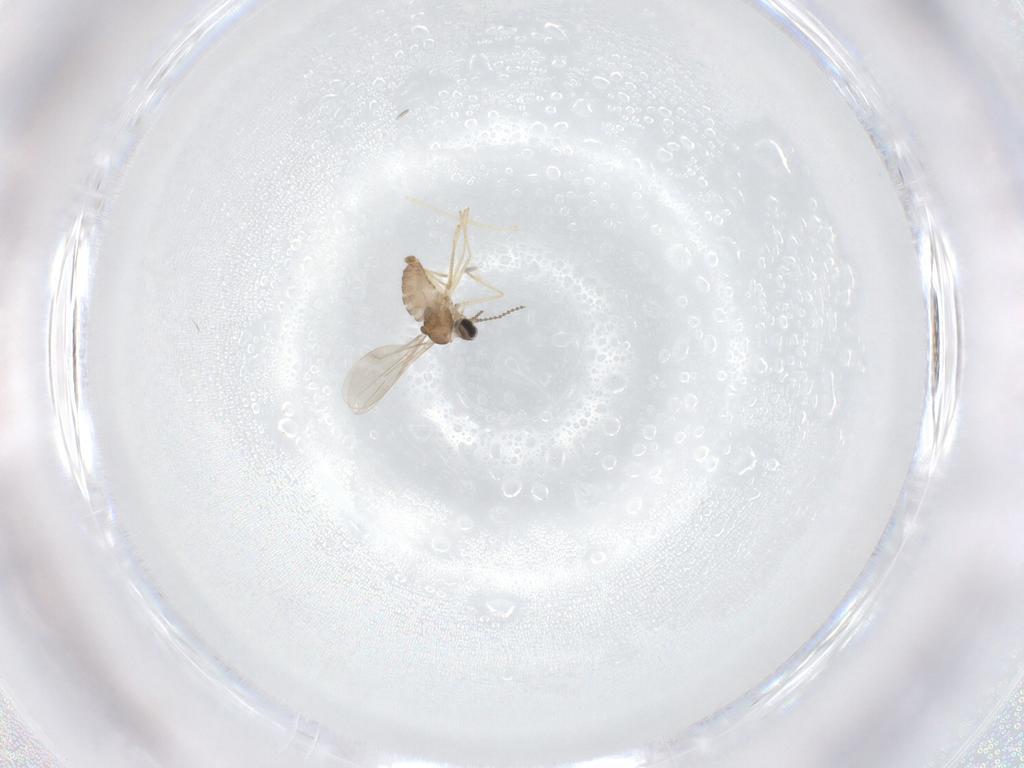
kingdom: Animalia
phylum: Arthropoda
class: Insecta
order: Diptera
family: Cecidomyiidae
